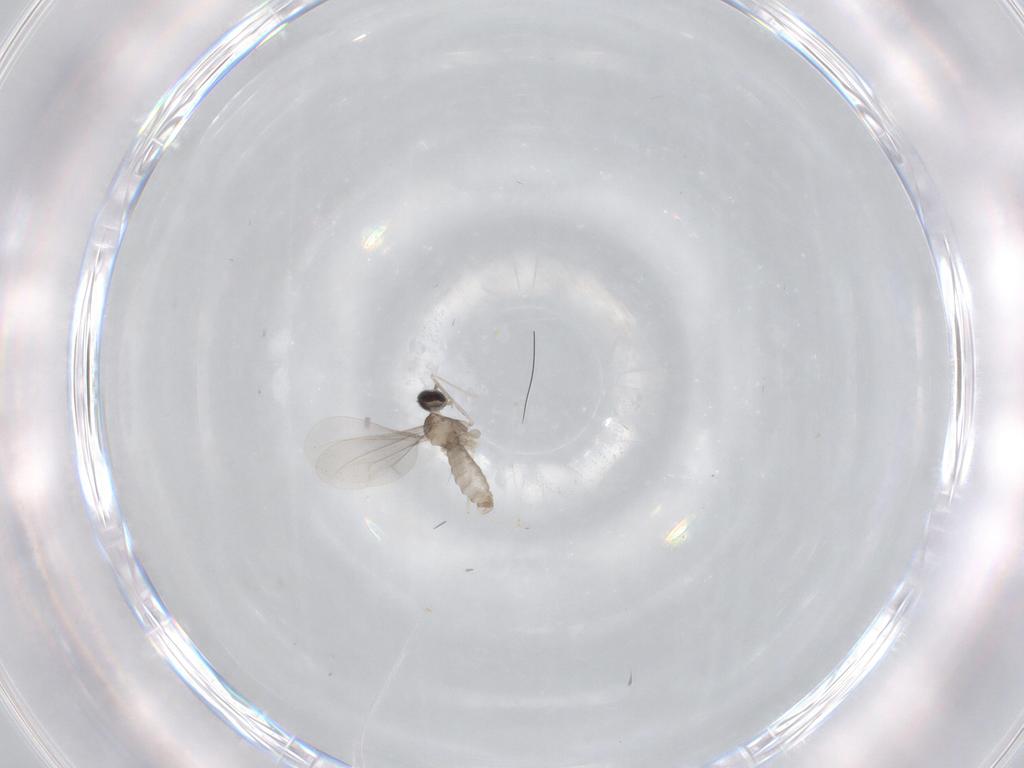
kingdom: Animalia
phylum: Arthropoda
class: Insecta
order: Diptera
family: Cecidomyiidae
